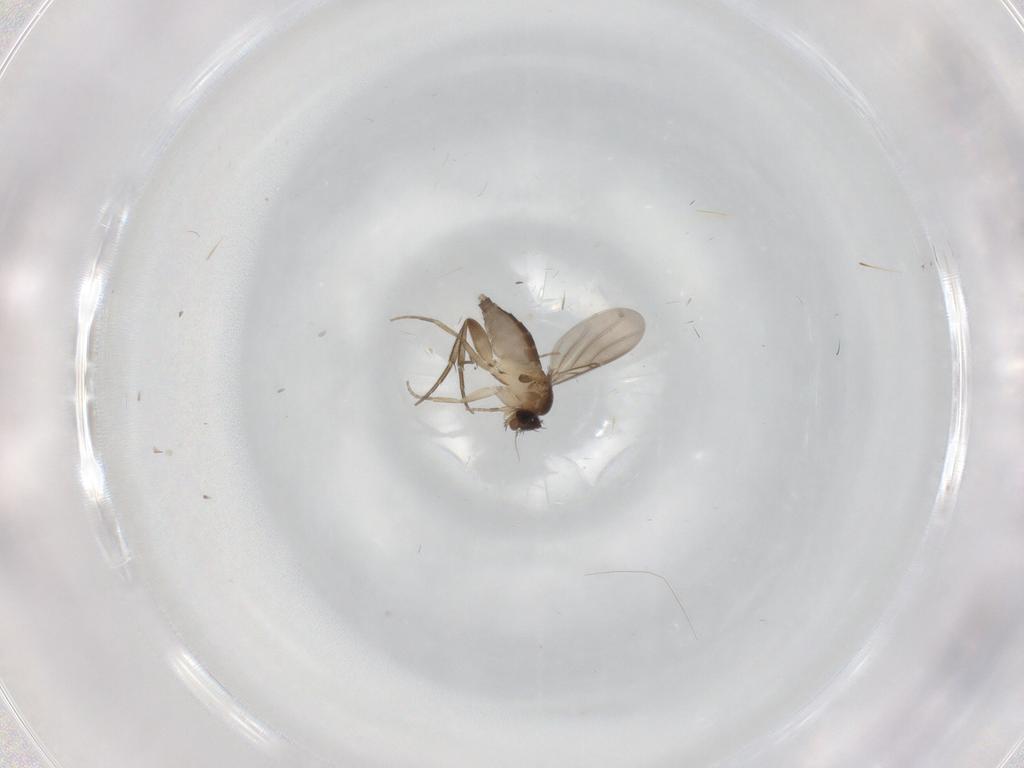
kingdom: Animalia
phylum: Arthropoda
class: Insecta
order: Diptera
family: Phoridae
